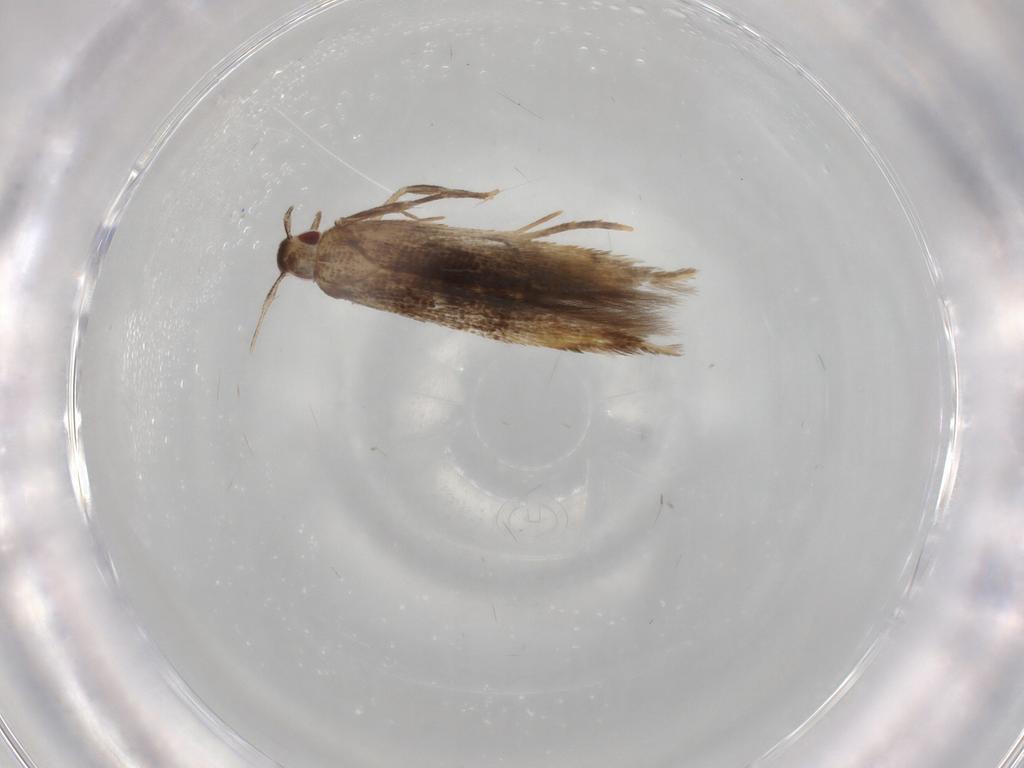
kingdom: Animalia
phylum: Arthropoda
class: Insecta
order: Lepidoptera
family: Gelechiidae
